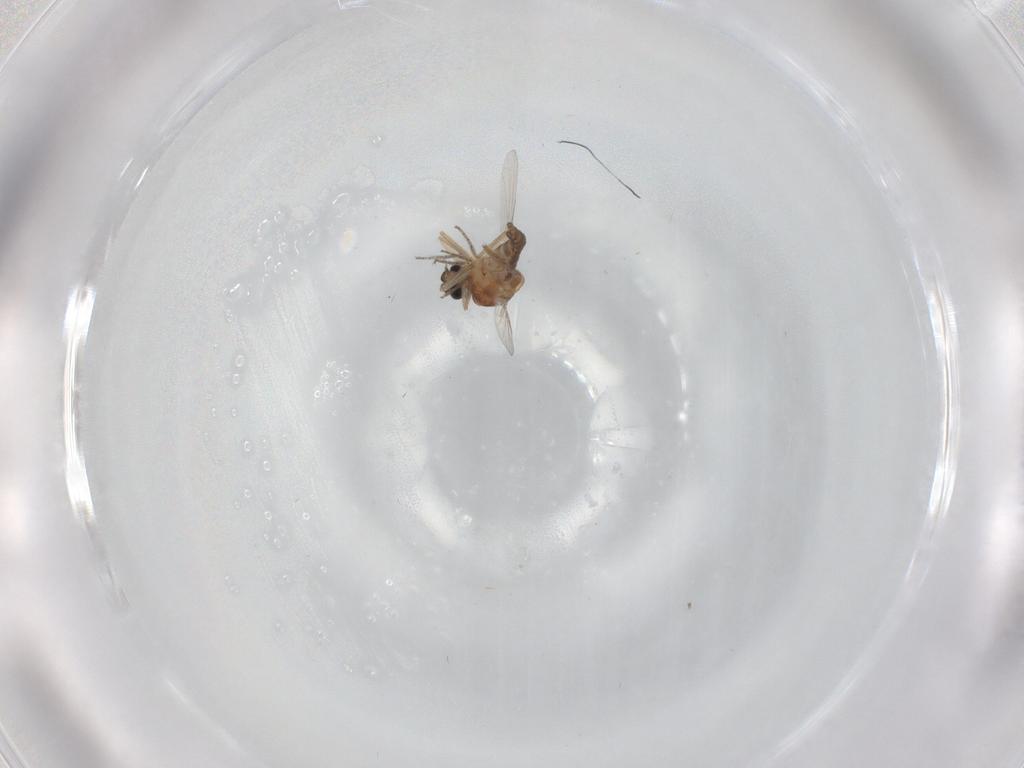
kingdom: Animalia
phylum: Arthropoda
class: Insecta
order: Diptera
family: Ceratopogonidae
